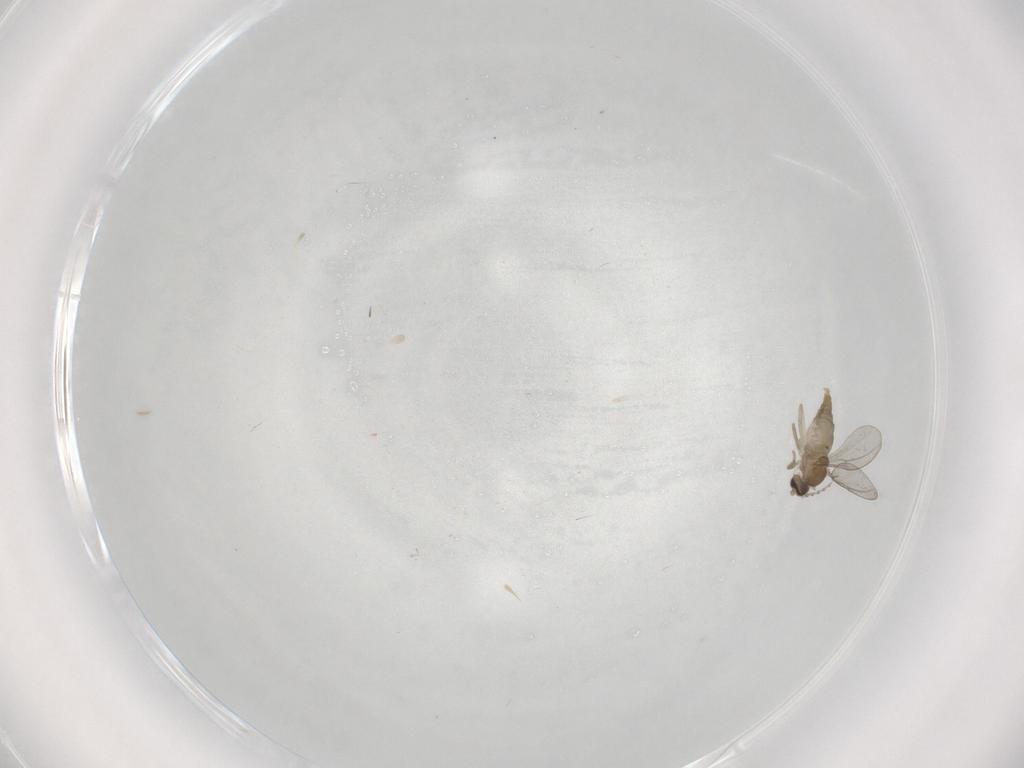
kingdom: Animalia
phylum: Arthropoda
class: Insecta
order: Diptera
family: Cecidomyiidae
